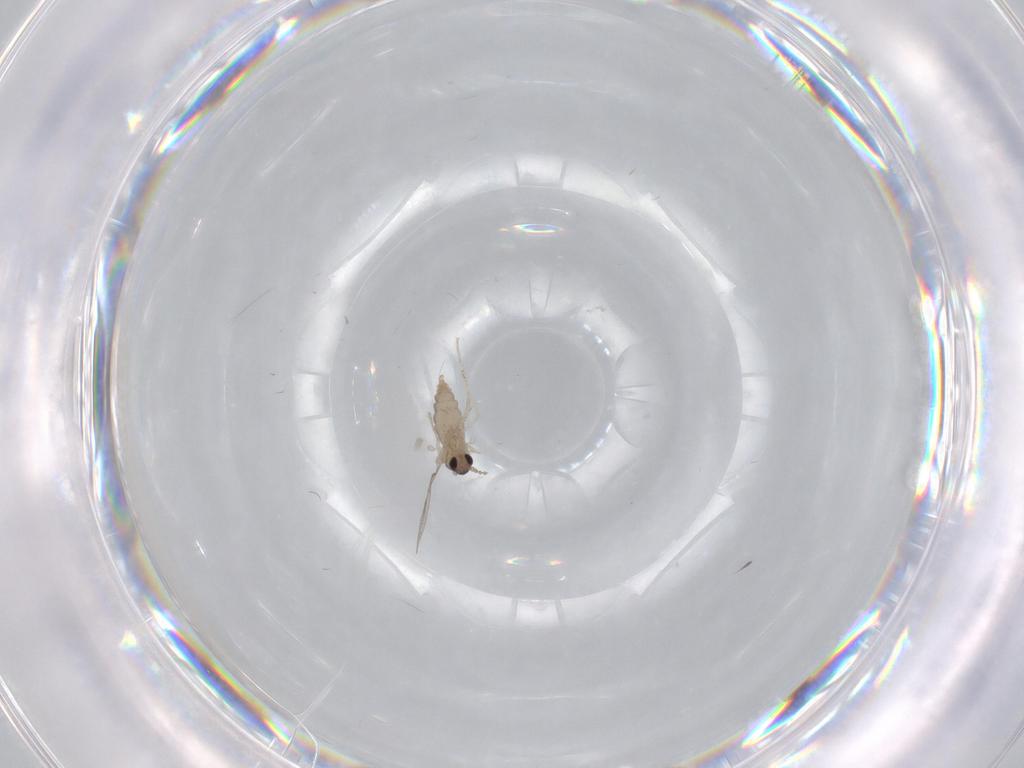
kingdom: Animalia
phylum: Arthropoda
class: Insecta
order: Diptera
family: Cecidomyiidae
